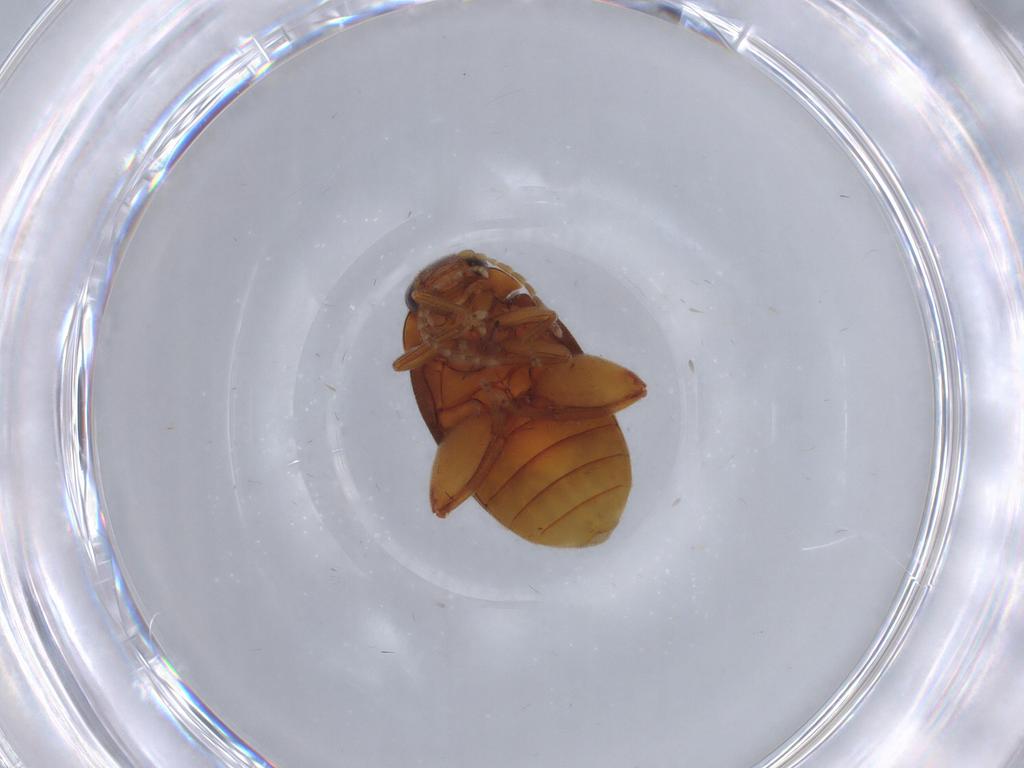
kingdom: Animalia
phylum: Arthropoda
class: Insecta
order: Coleoptera
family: Scirtidae
